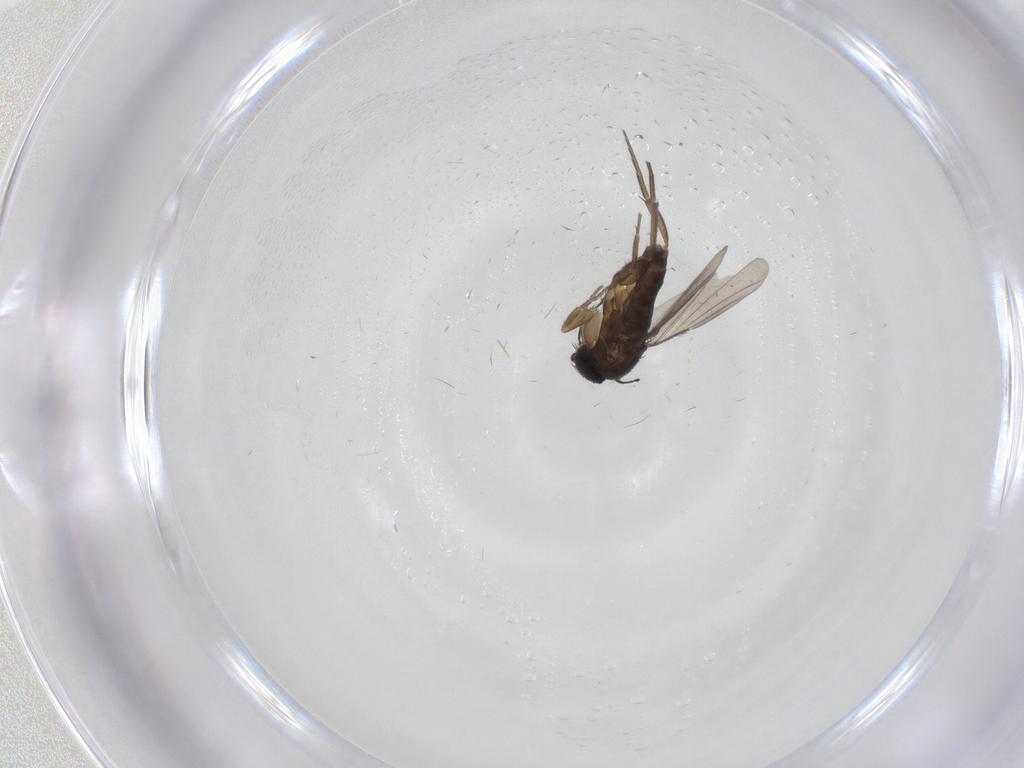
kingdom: Animalia
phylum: Arthropoda
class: Insecta
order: Diptera
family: Phoridae
